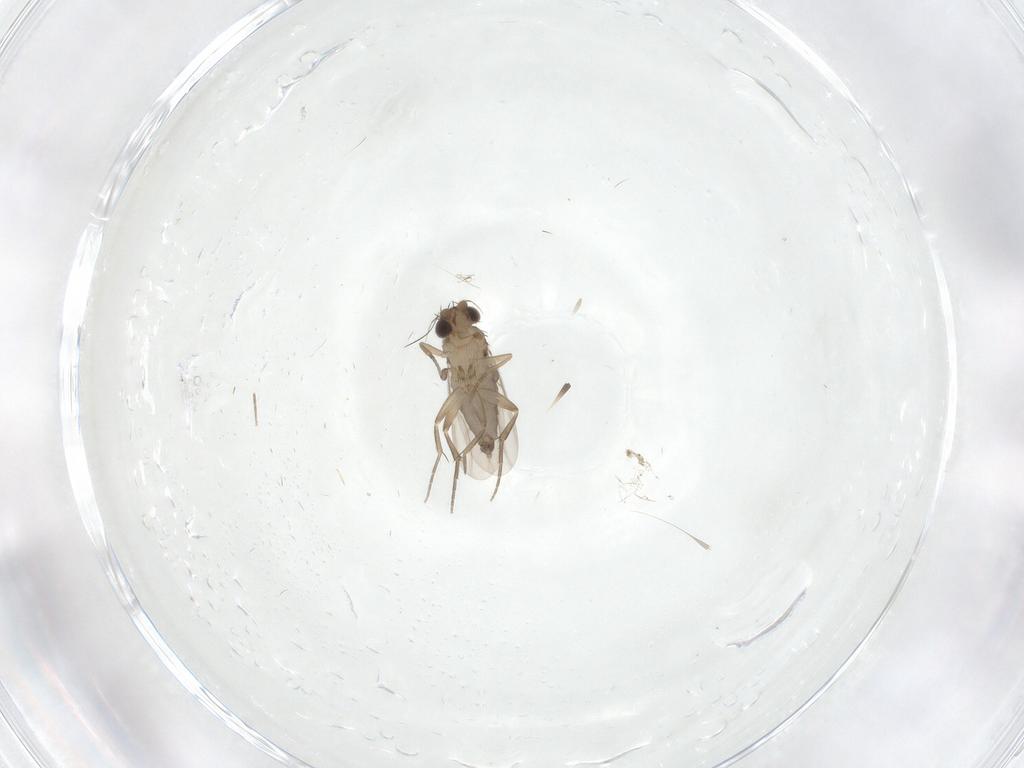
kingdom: Animalia
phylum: Arthropoda
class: Insecta
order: Diptera
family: Phoridae
